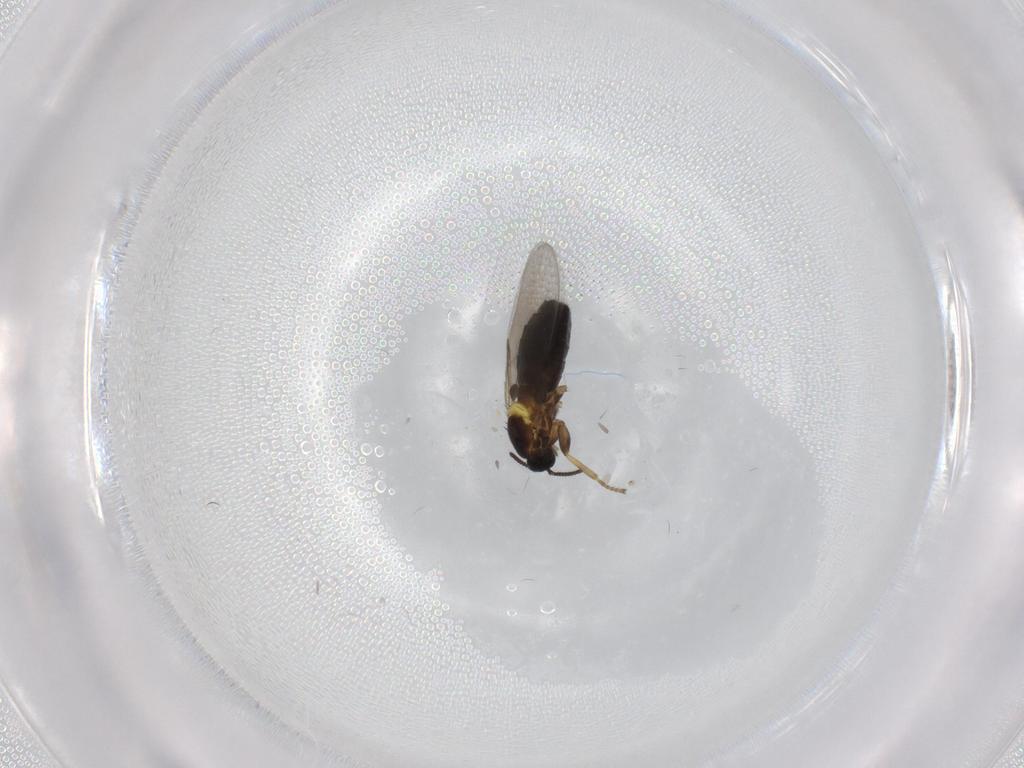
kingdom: Animalia
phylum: Arthropoda
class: Insecta
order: Diptera
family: Scatopsidae
